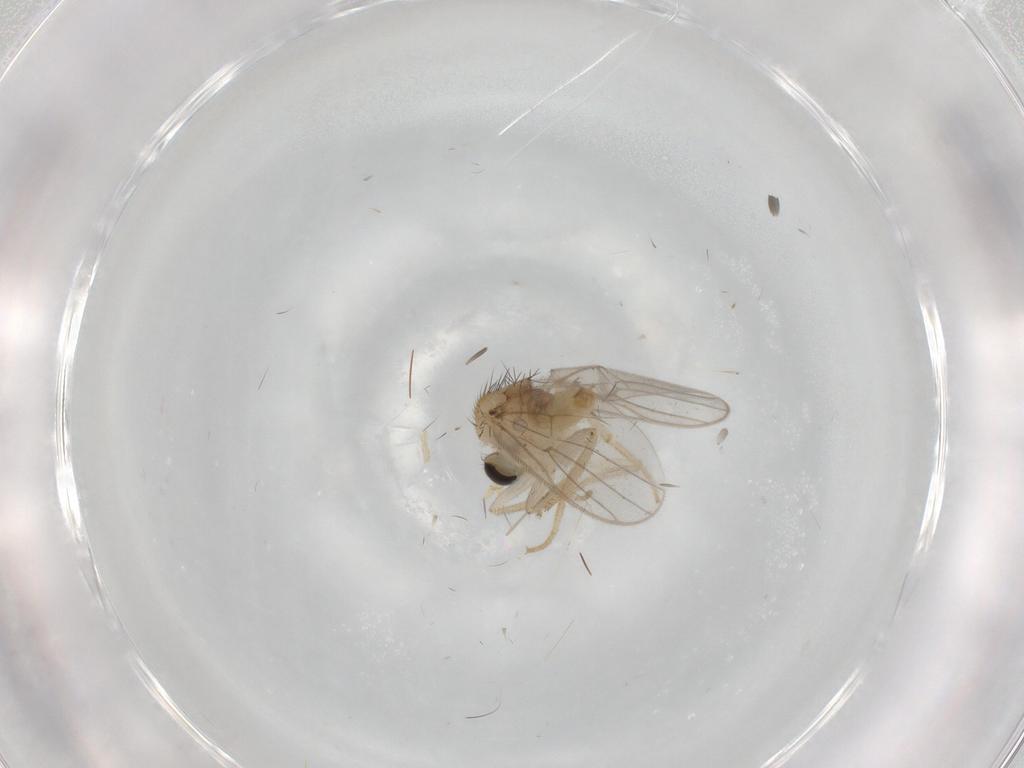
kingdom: Animalia
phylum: Arthropoda
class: Insecta
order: Diptera
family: Hybotidae
